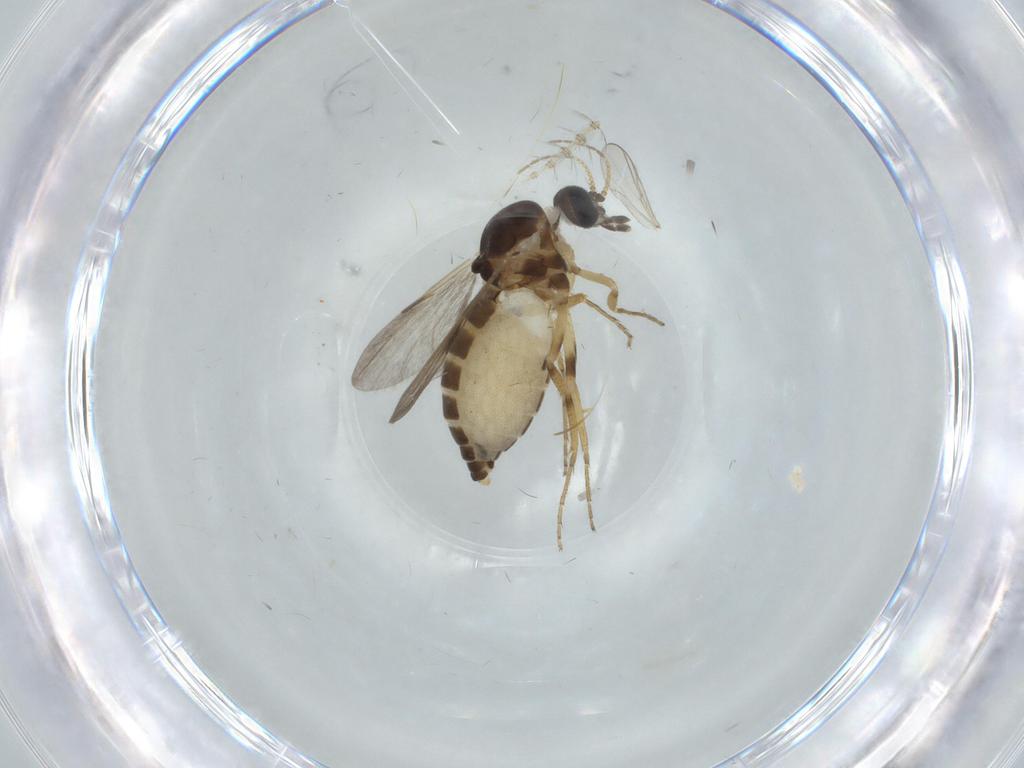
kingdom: Animalia
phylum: Arthropoda
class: Insecta
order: Diptera
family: Ceratopogonidae
